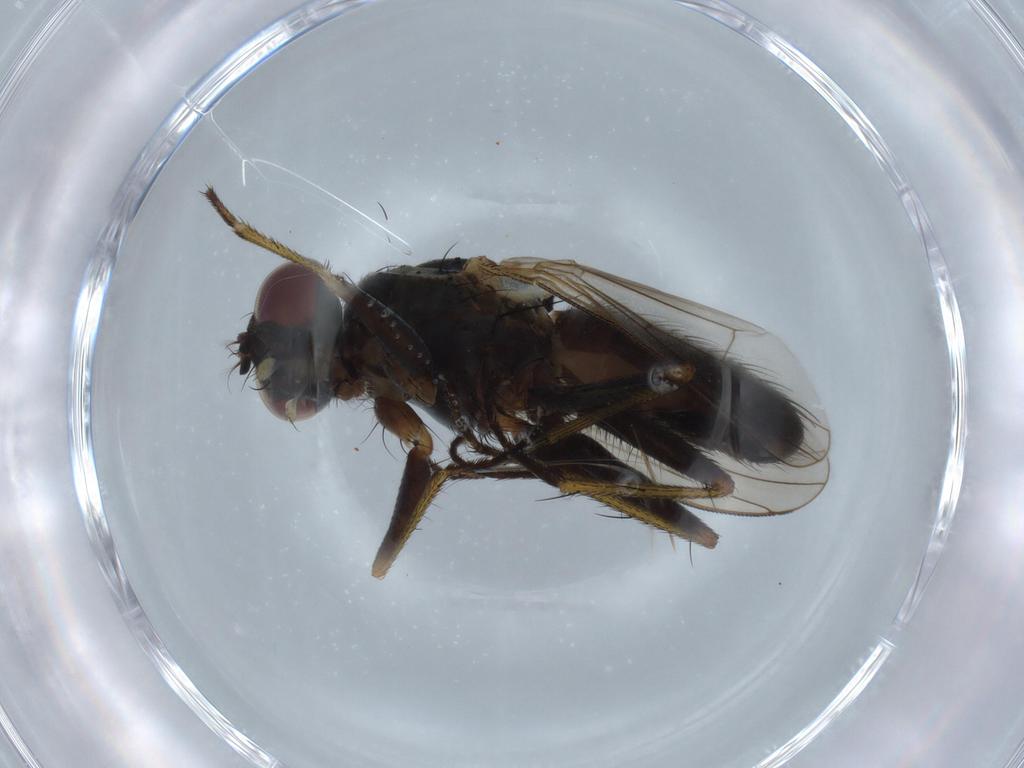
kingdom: Animalia
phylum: Arthropoda
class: Insecta
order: Diptera
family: Muscidae
